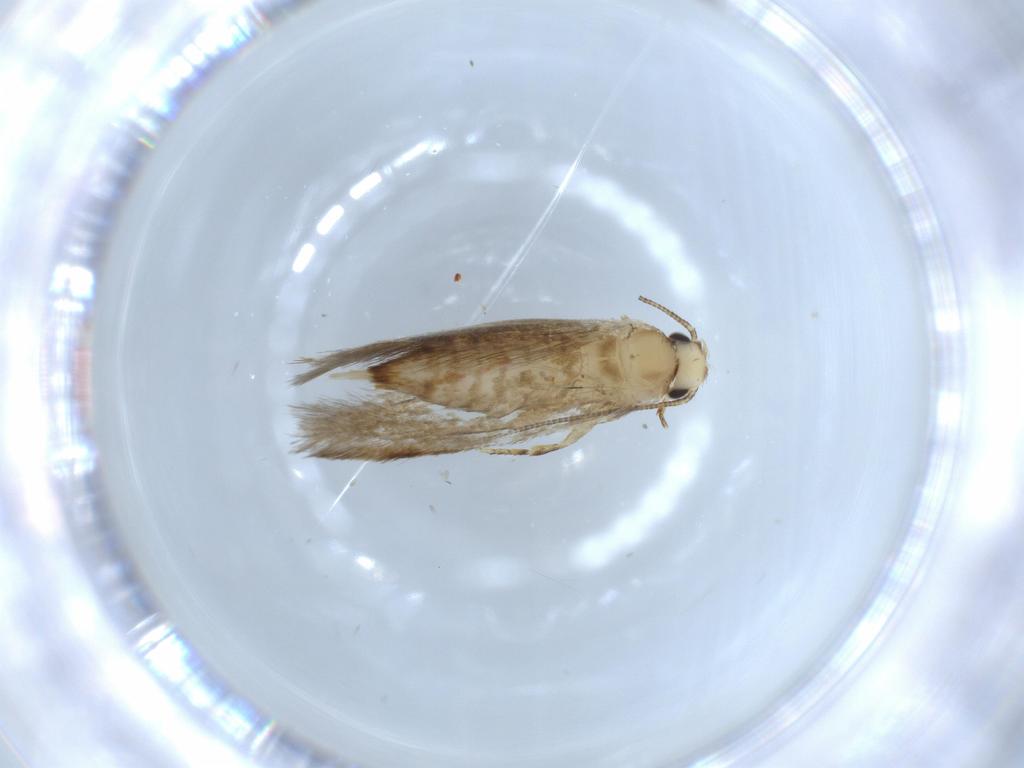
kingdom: Animalia
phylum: Arthropoda
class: Insecta
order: Lepidoptera
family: Tineidae
